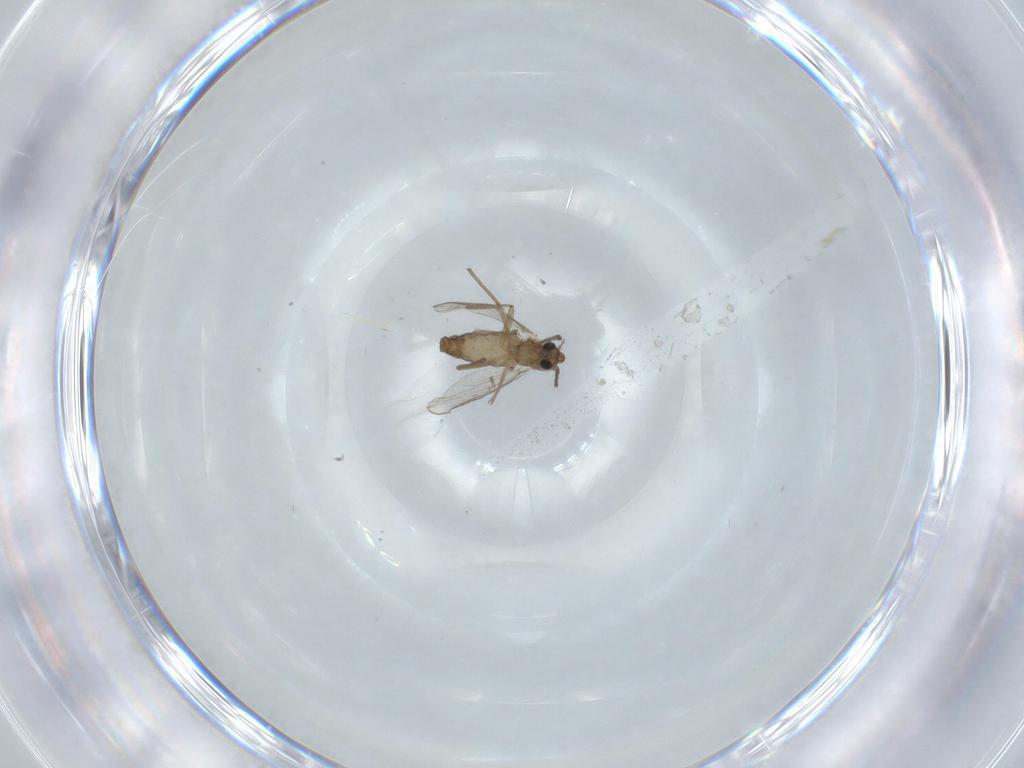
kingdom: Animalia
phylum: Arthropoda
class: Insecta
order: Diptera
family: Chironomidae
